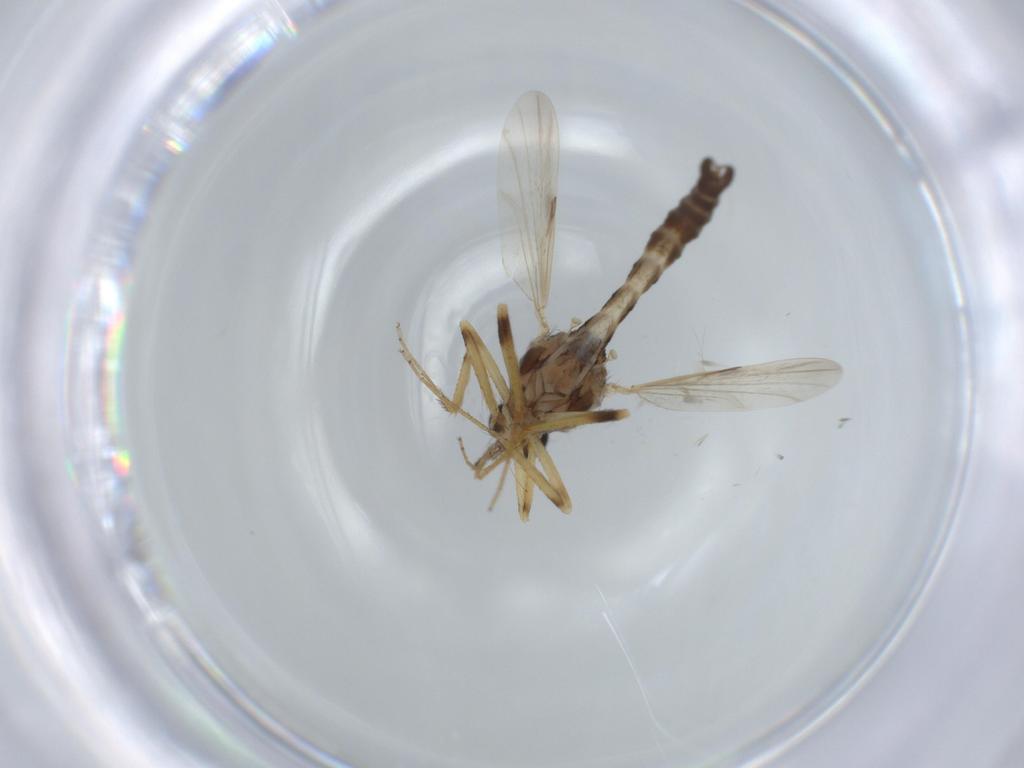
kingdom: Animalia
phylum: Arthropoda
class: Insecta
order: Diptera
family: Ceratopogonidae
